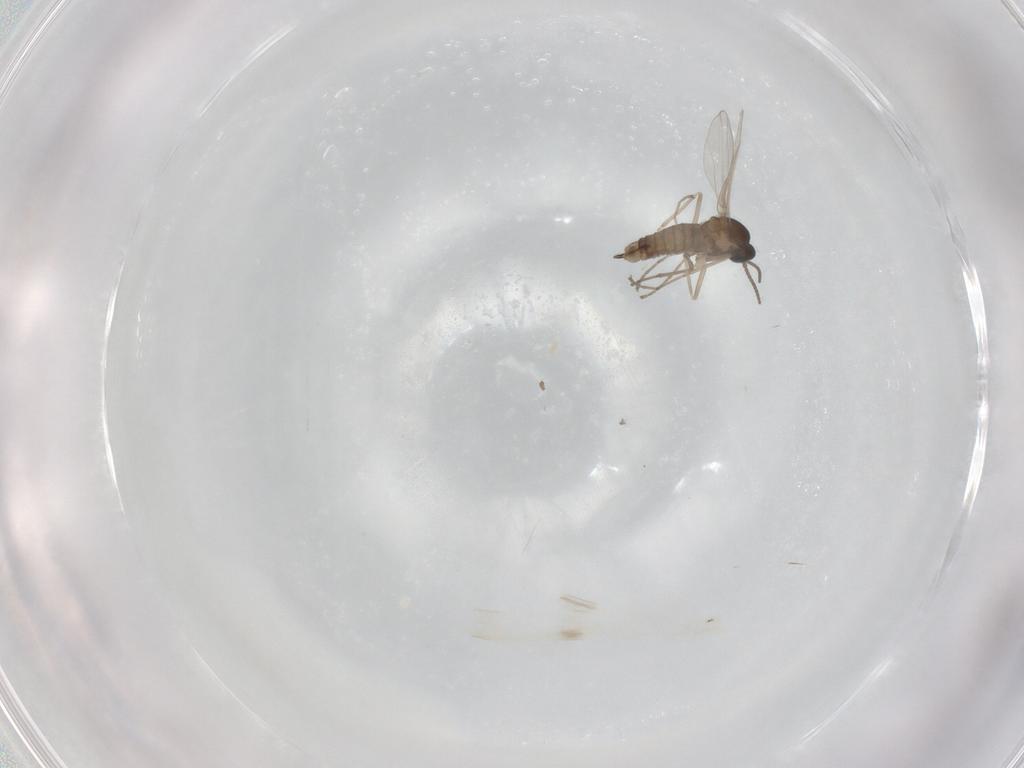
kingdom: Animalia
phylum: Arthropoda
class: Insecta
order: Diptera
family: Cecidomyiidae
